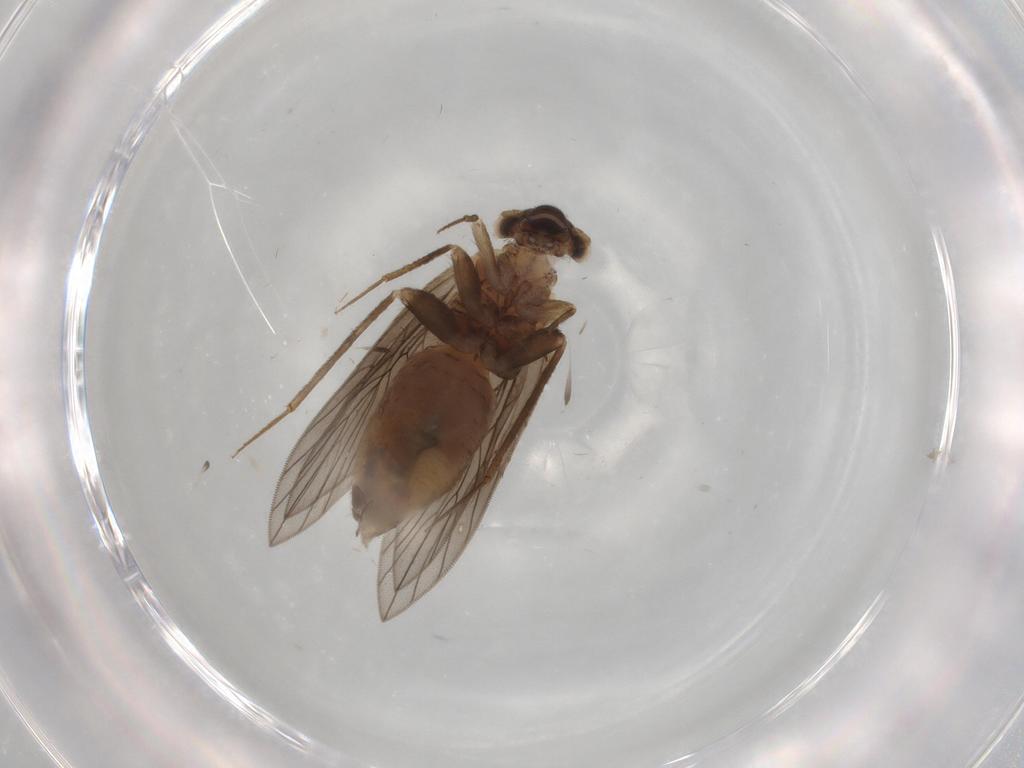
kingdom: Animalia
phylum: Arthropoda
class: Insecta
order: Psocodea
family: Lepidopsocidae
